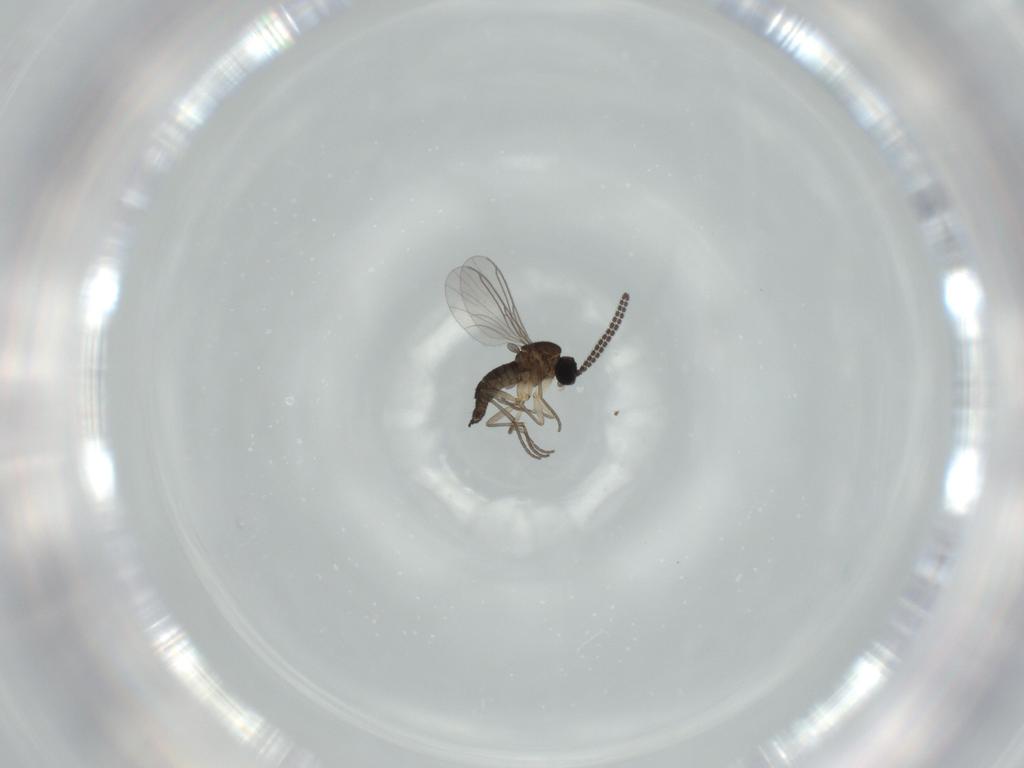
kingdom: Animalia
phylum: Arthropoda
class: Insecta
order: Diptera
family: Sciaridae
